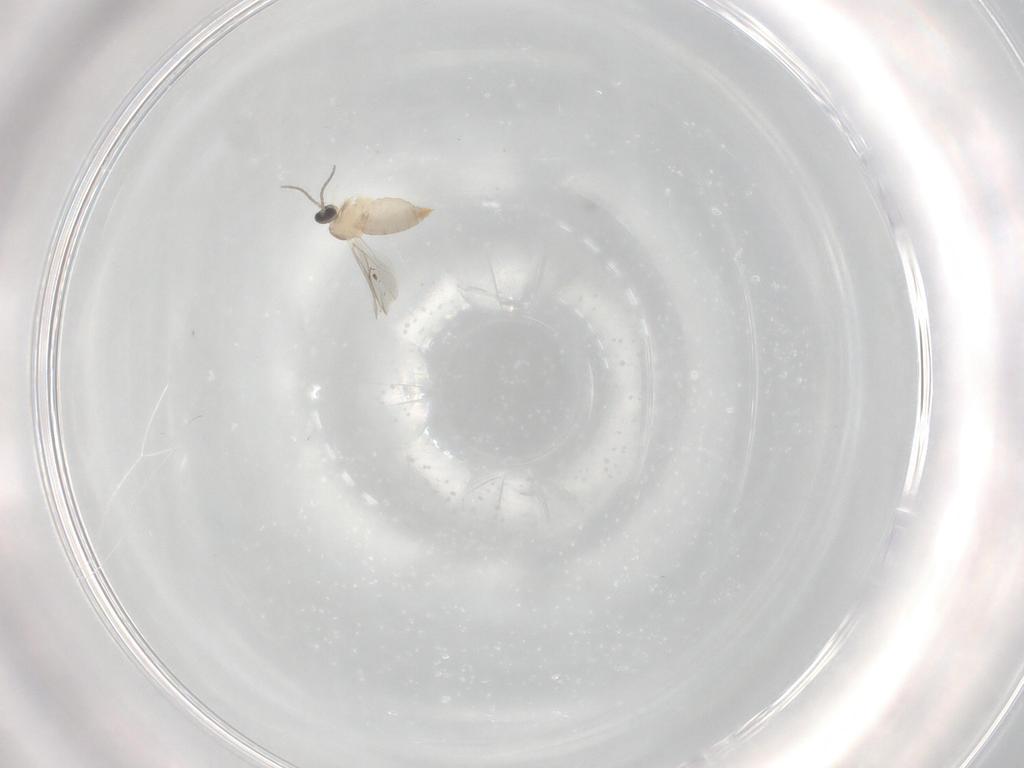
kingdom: Animalia
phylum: Arthropoda
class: Insecta
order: Diptera
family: Cecidomyiidae
